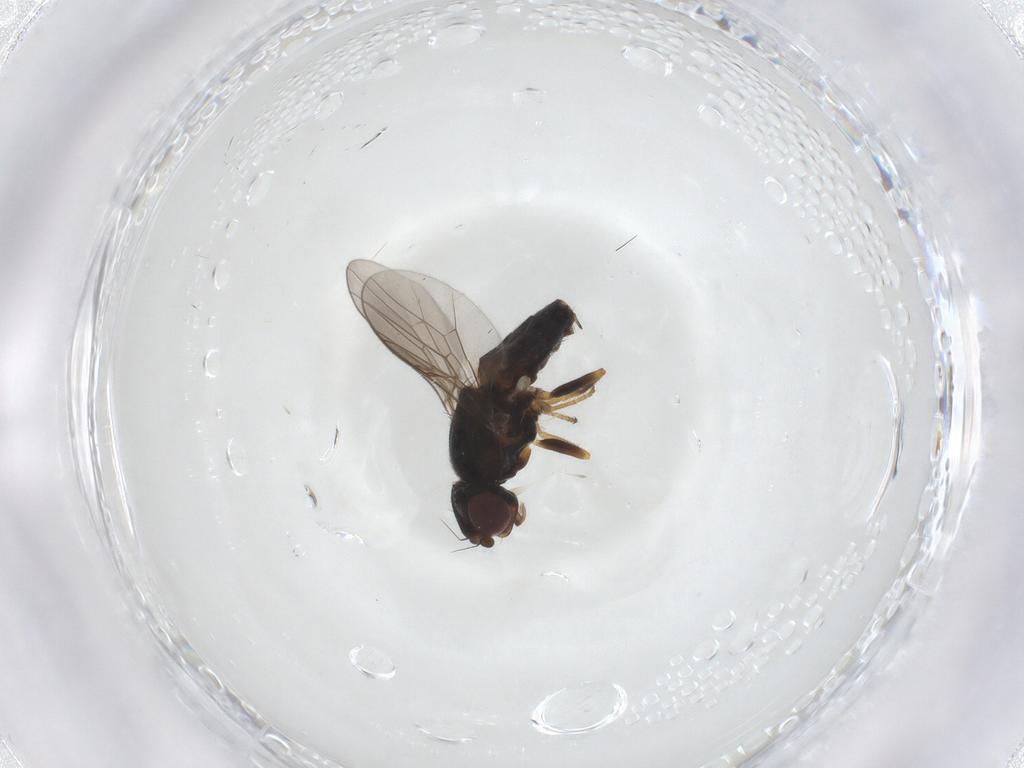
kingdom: Animalia
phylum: Arthropoda
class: Insecta
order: Diptera
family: Chloropidae
